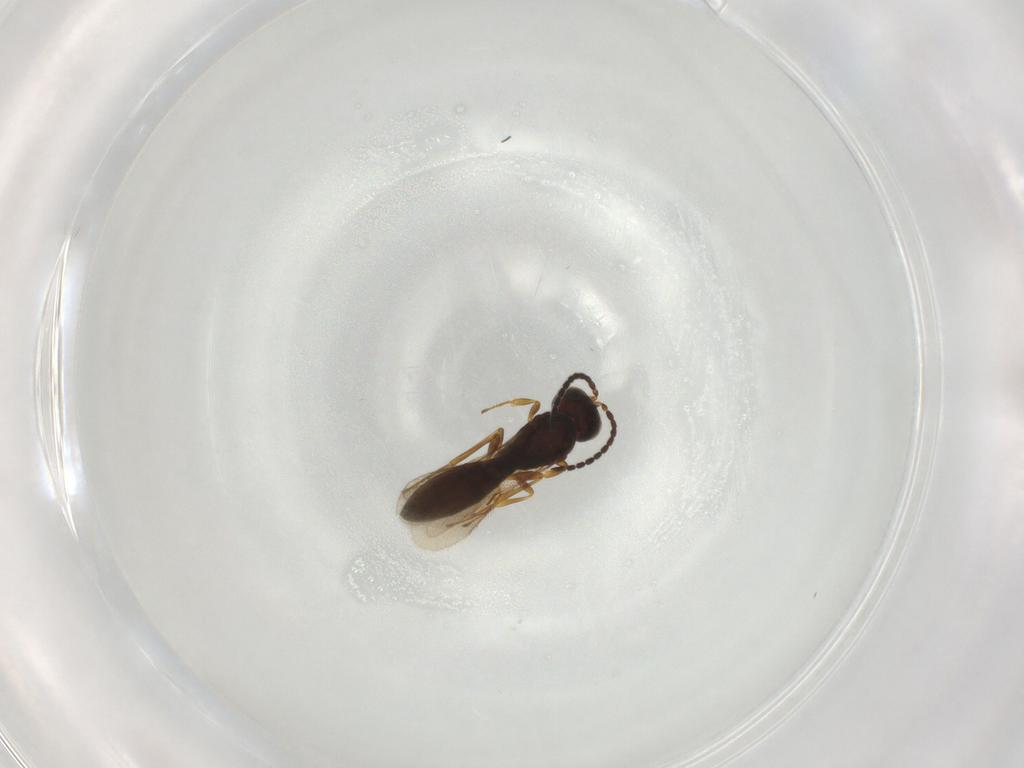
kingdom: Animalia
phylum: Arthropoda
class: Insecta
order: Hymenoptera
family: Scelionidae
